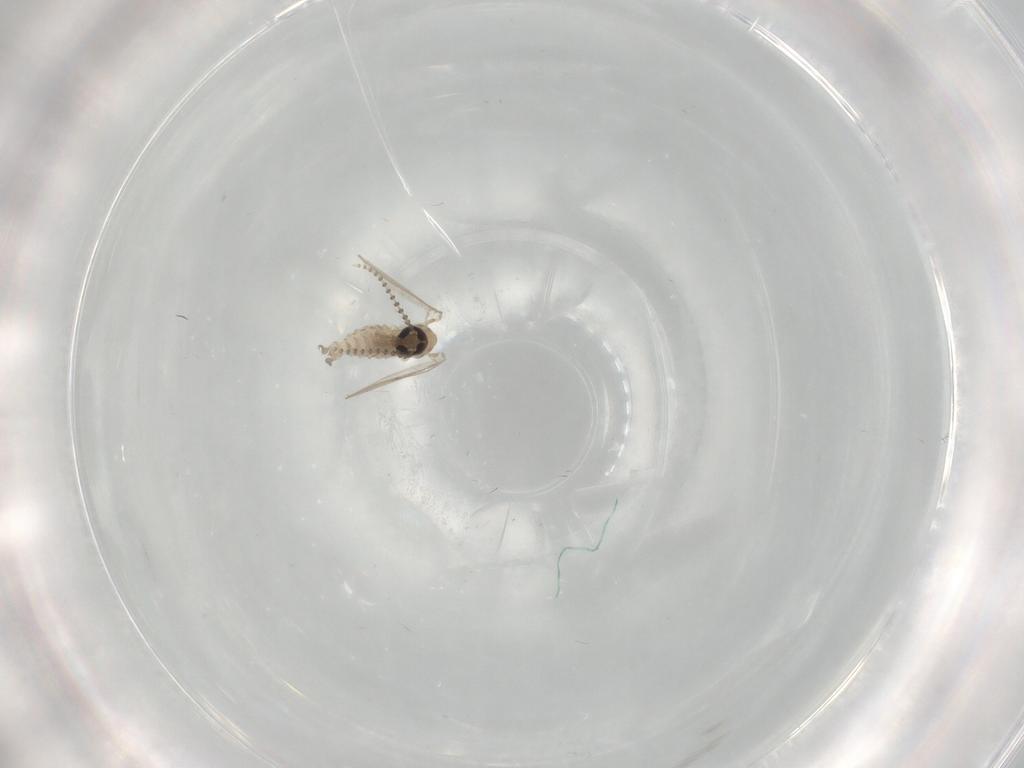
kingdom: Animalia
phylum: Arthropoda
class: Insecta
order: Diptera
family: Psychodidae
